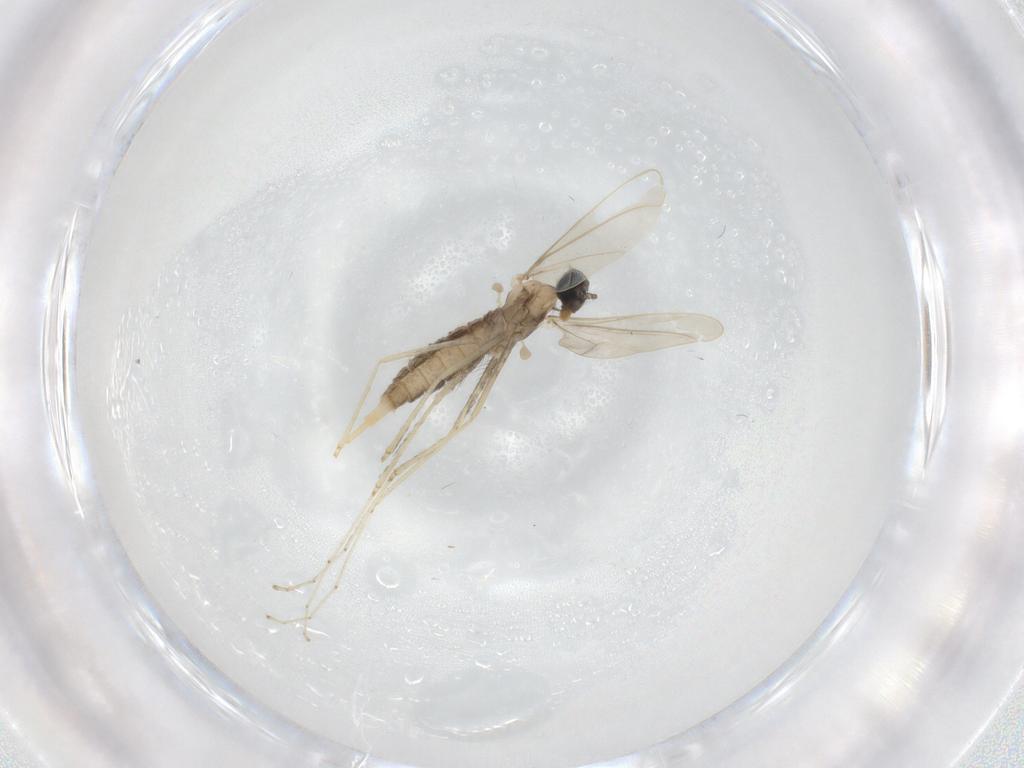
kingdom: Animalia
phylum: Arthropoda
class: Insecta
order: Diptera
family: Cecidomyiidae
